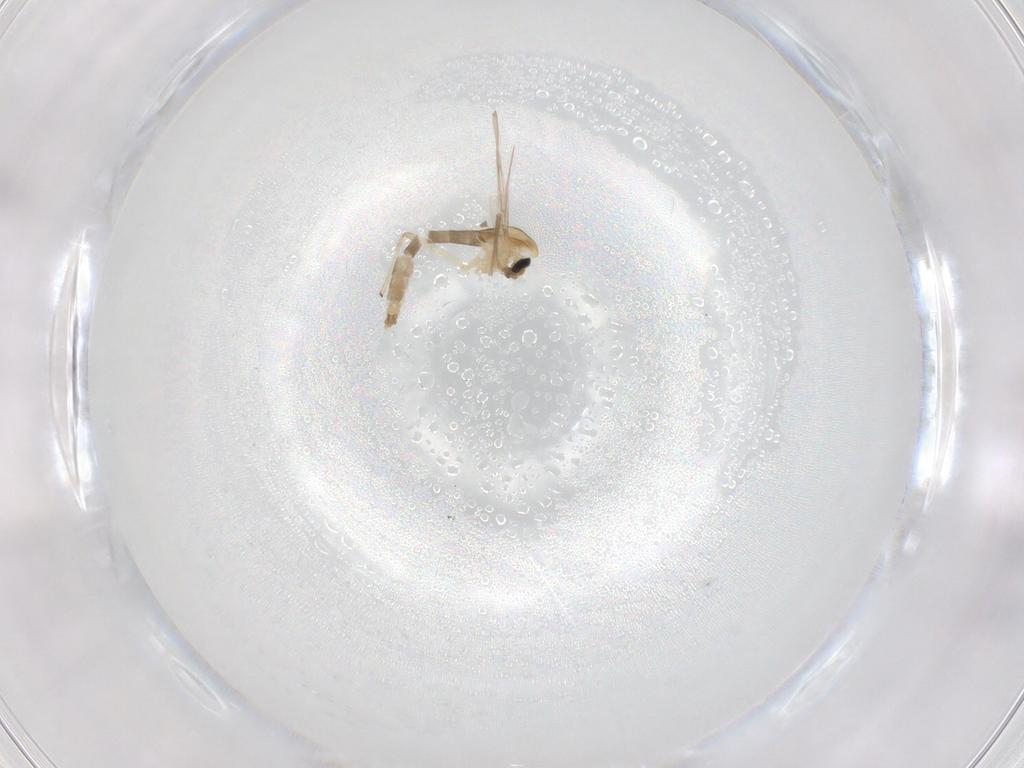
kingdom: Animalia
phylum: Arthropoda
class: Insecta
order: Diptera
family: Chironomidae
